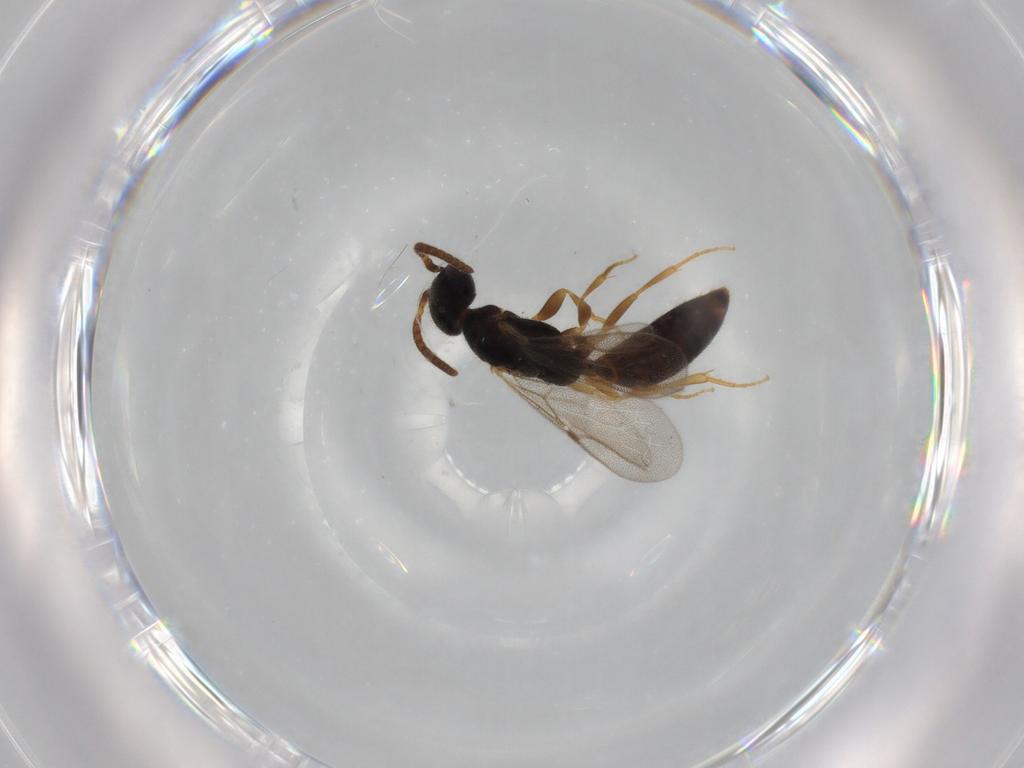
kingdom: Animalia
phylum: Arthropoda
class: Insecta
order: Hymenoptera
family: Bethylidae
